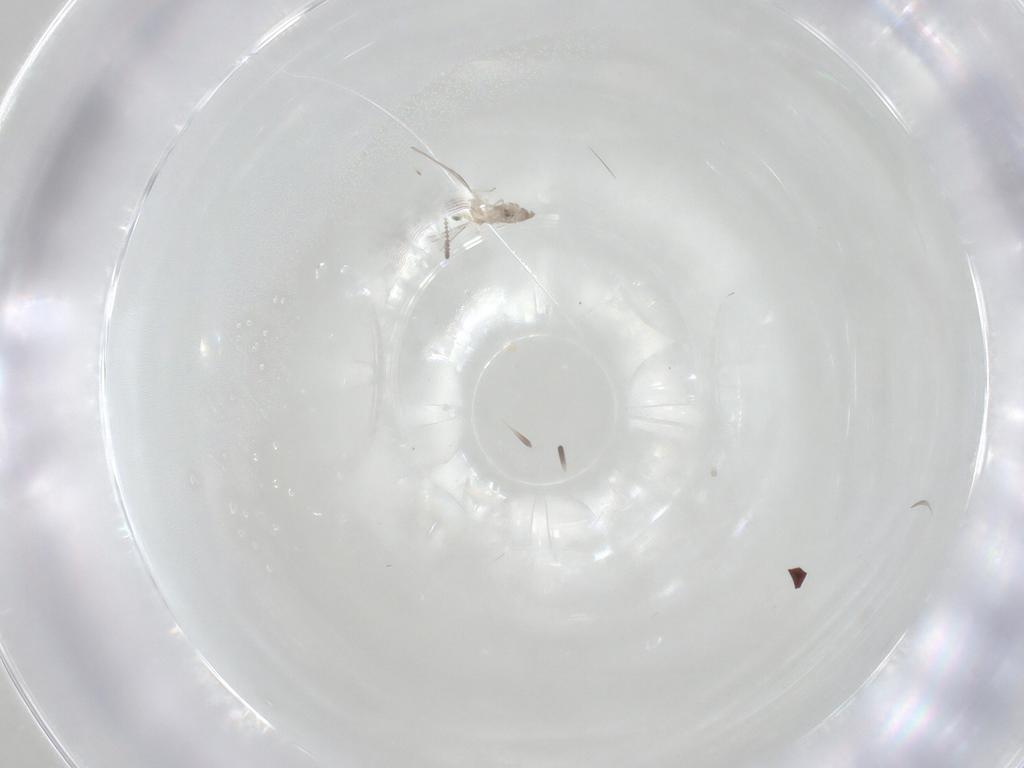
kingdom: Animalia
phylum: Arthropoda
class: Insecta
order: Diptera
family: Cecidomyiidae
